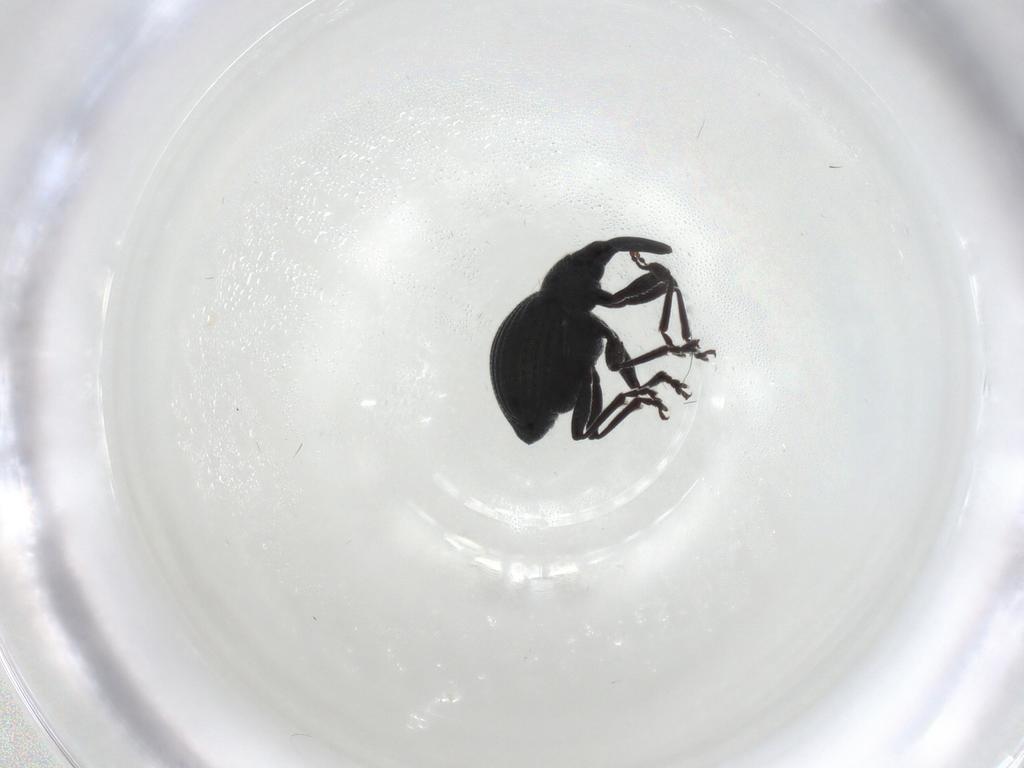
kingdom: Animalia
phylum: Arthropoda
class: Insecta
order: Coleoptera
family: Brentidae
